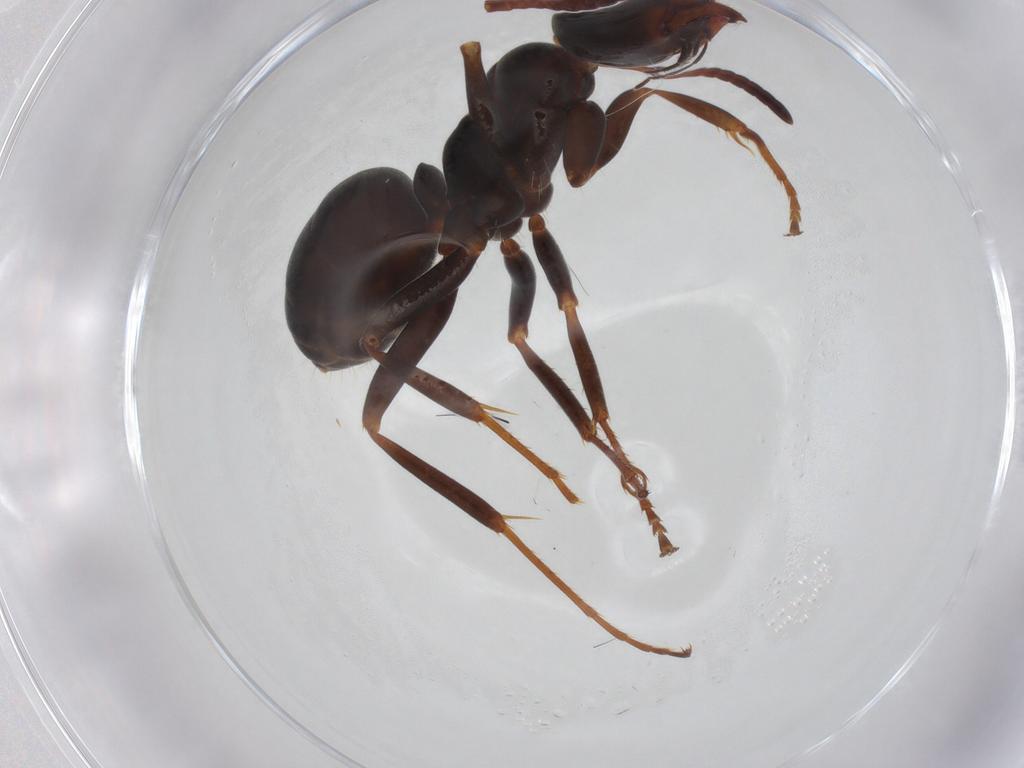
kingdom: Animalia
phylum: Arthropoda
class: Insecta
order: Hymenoptera
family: Formicidae
